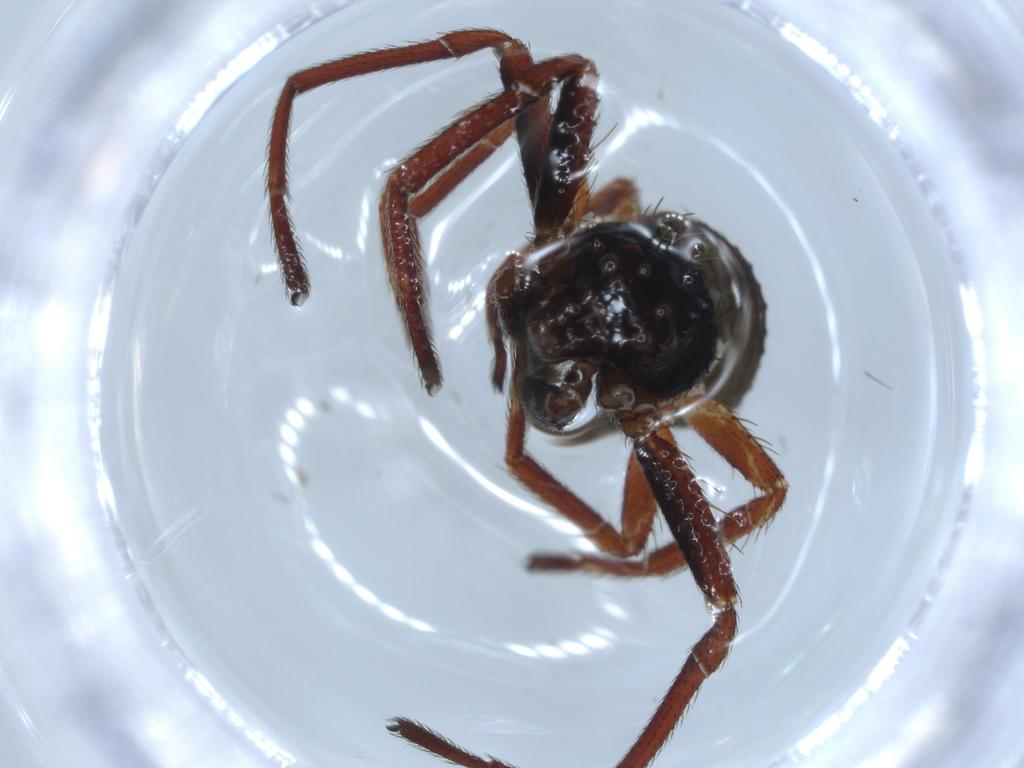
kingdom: Animalia
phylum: Arthropoda
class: Arachnida
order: Araneae
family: Thomisidae
